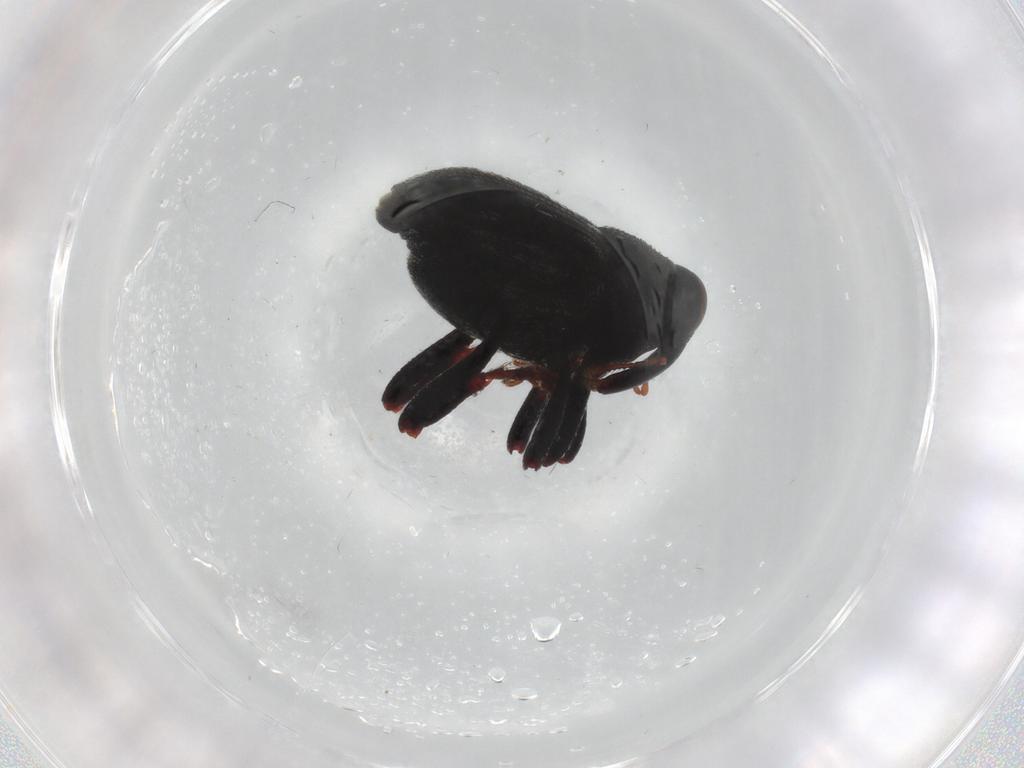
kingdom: Animalia
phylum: Arthropoda
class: Insecta
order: Coleoptera
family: Curculionidae
